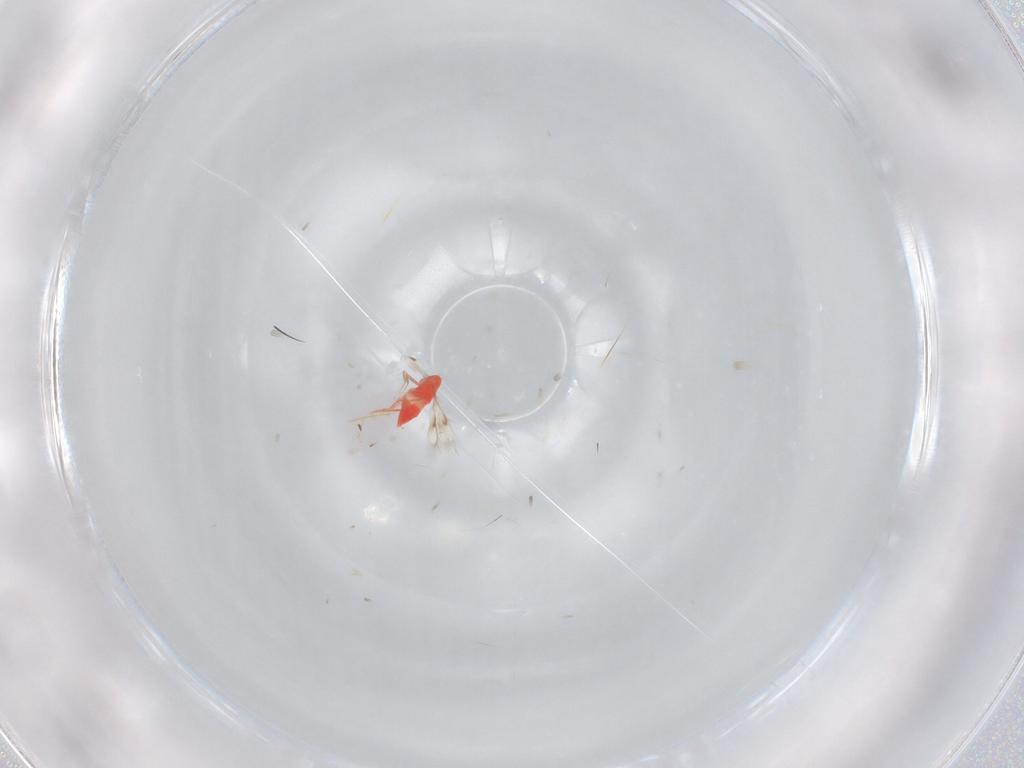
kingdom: Animalia
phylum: Arthropoda
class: Insecta
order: Hymenoptera
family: Trichogrammatidae
